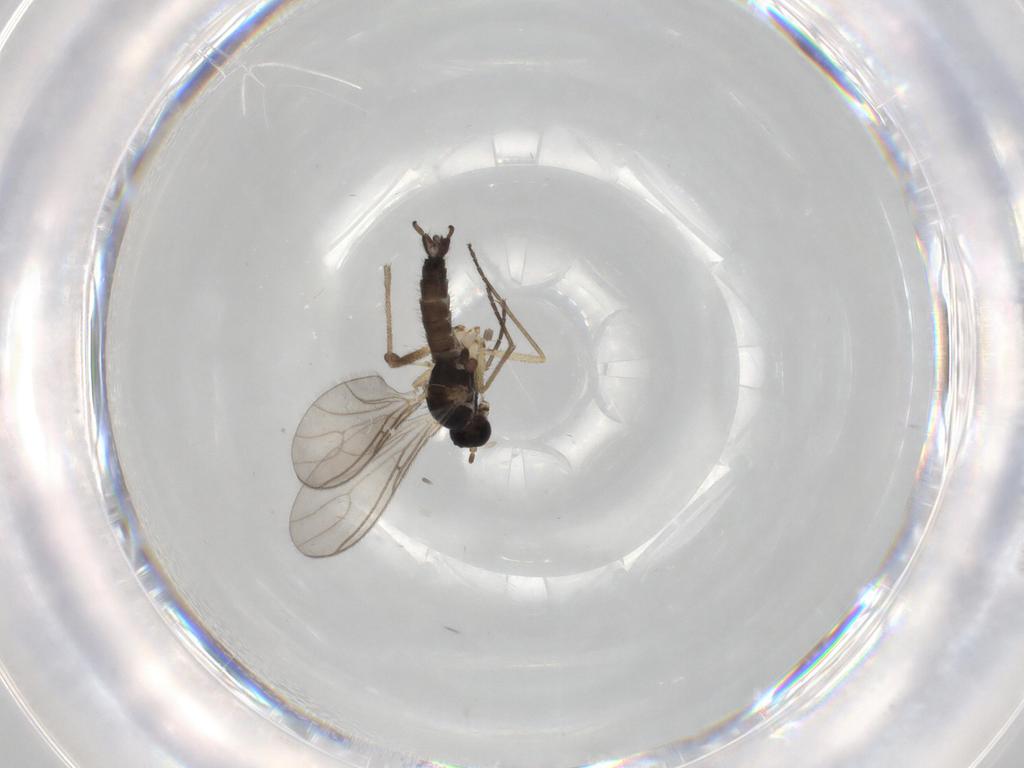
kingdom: Animalia
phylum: Arthropoda
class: Insecta
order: Diptera
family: Sciaridae
